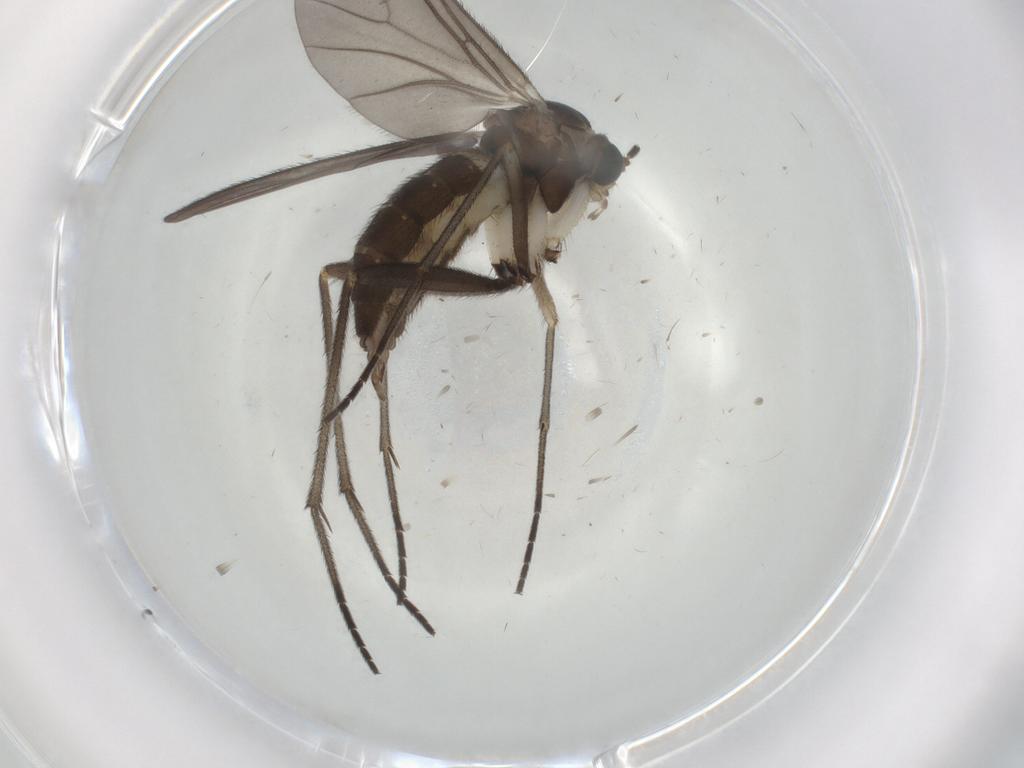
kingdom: Animalia
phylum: Arthropoda
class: Insecta
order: Diptera
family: Sciaridae
